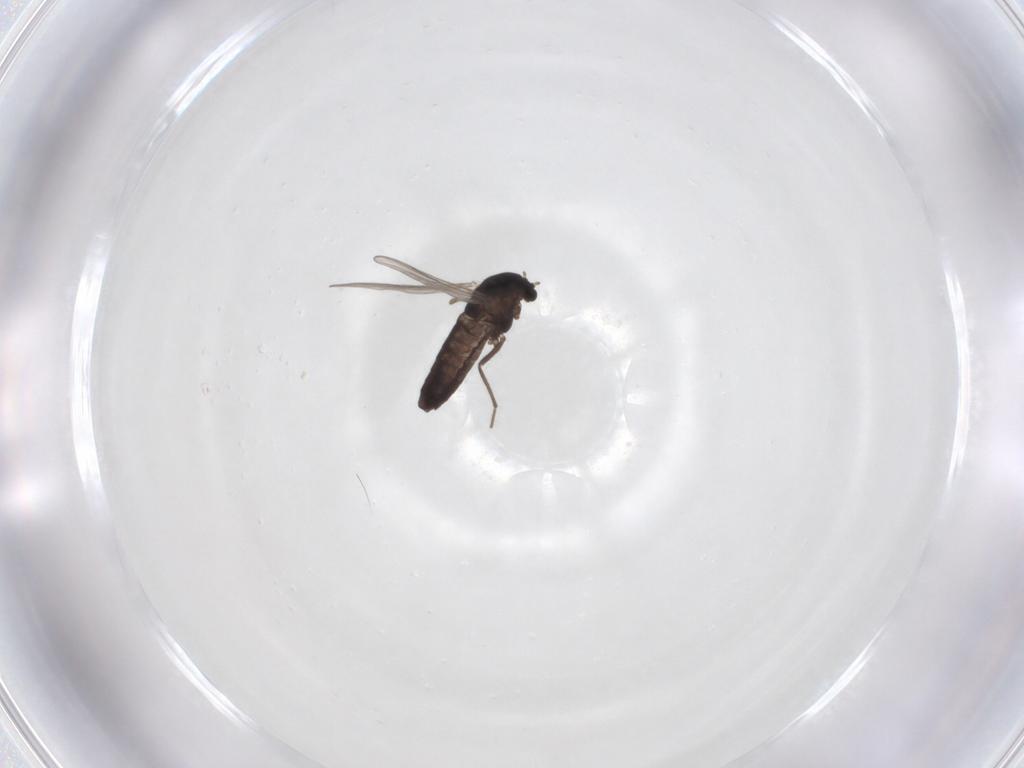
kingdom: Animalia
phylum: Arthropoda
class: Insecta
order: Diptera
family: Chironomidae
